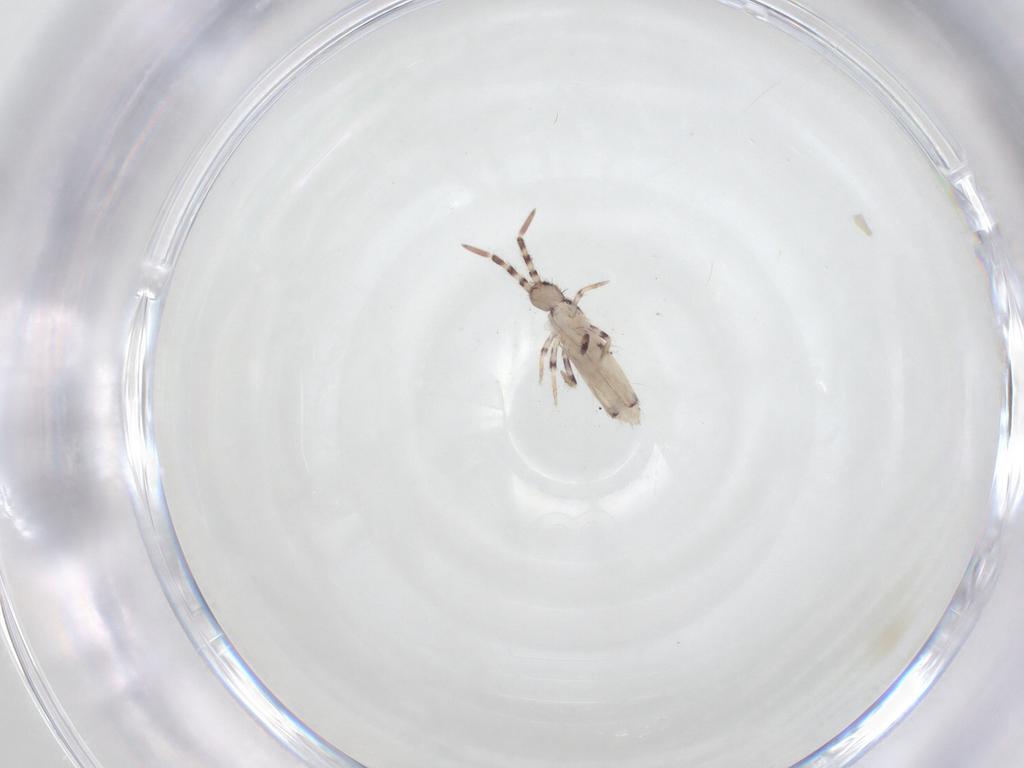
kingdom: Animalia
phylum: Arthropoda
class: Collembola
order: Entomobryomorpha
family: Entomobryidae
